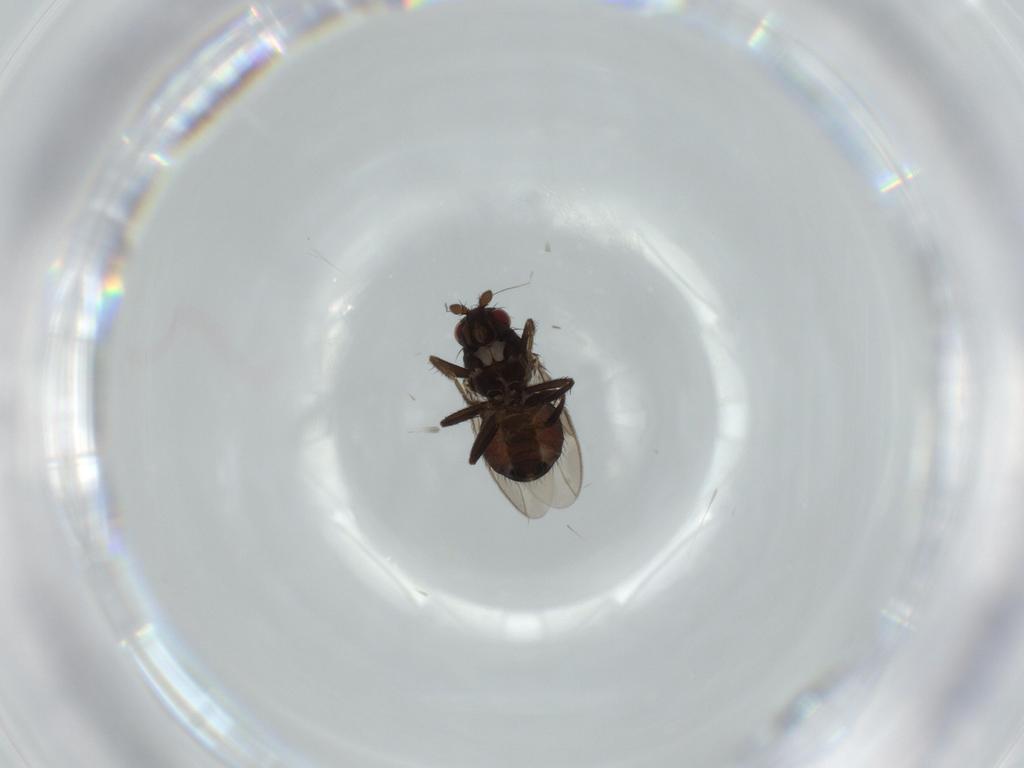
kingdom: Animalia
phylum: Arthropoda
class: Insecta
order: Diptera
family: Sphaeroceridae
